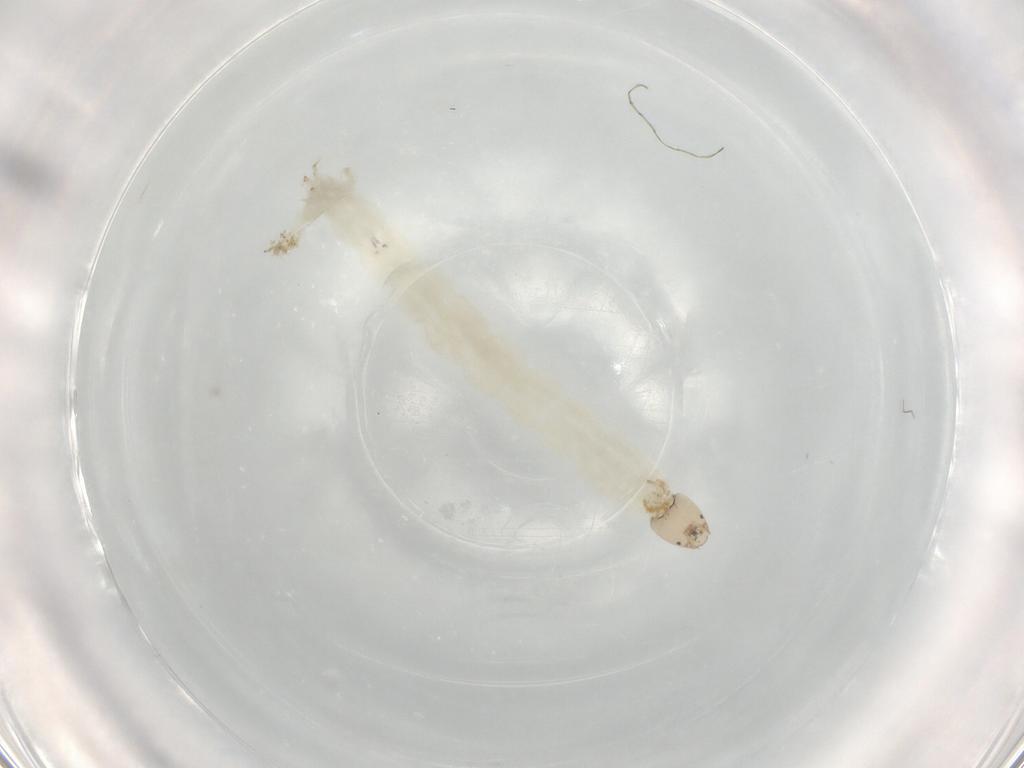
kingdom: Animalia
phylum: Arthropoda
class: Insecta
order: Diptera
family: Chironomidae
